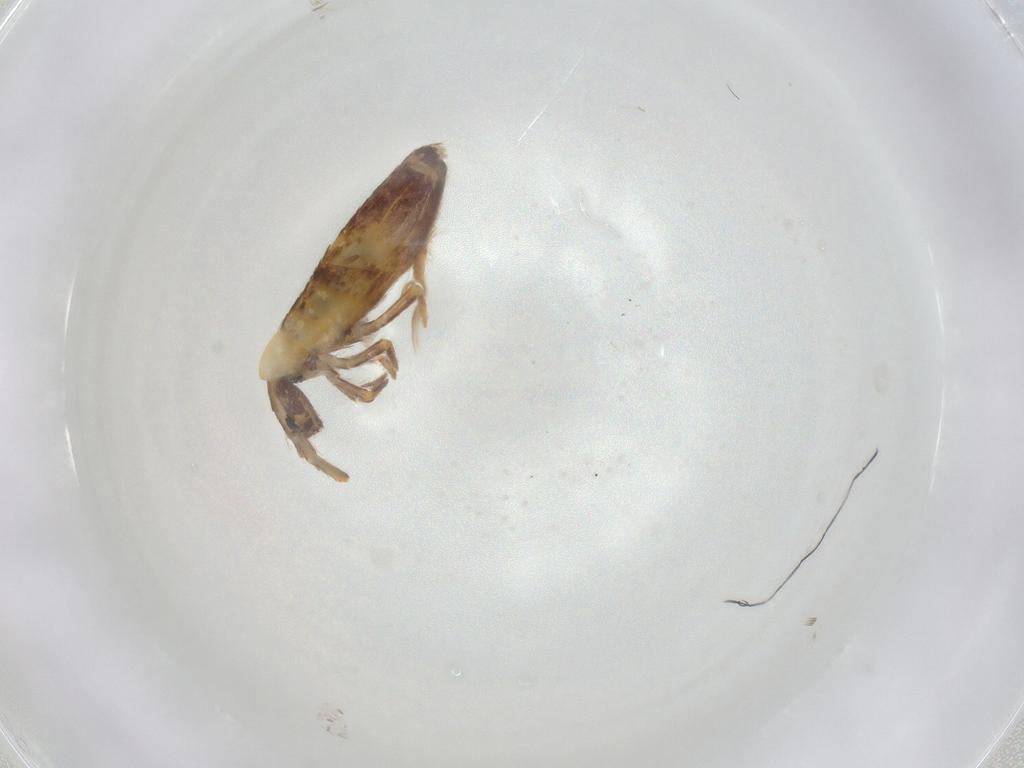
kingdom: Animalia
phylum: Arthropoda
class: Collembola
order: Entomobryomorpha
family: Entomobryidae
